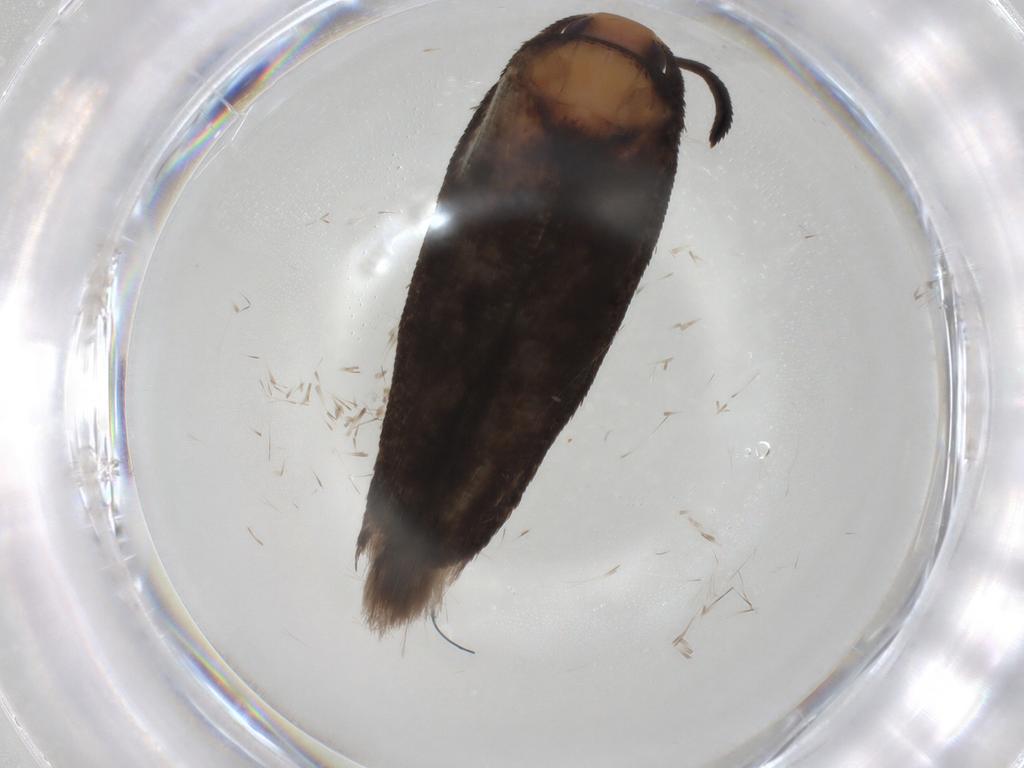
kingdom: Animalia
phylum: Arthropoda
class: Insecta
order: Lepidoptera
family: Cosmopterigidae
